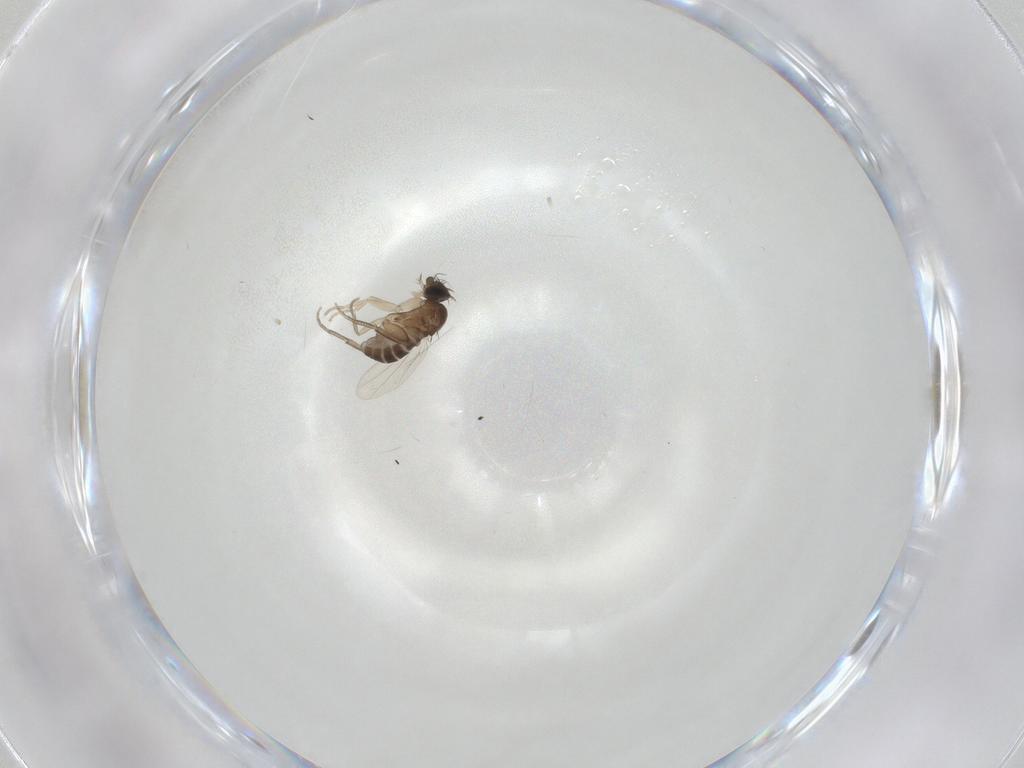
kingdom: Animalia
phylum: Arthropoda
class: Insecta
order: Diptera
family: Phoridae
